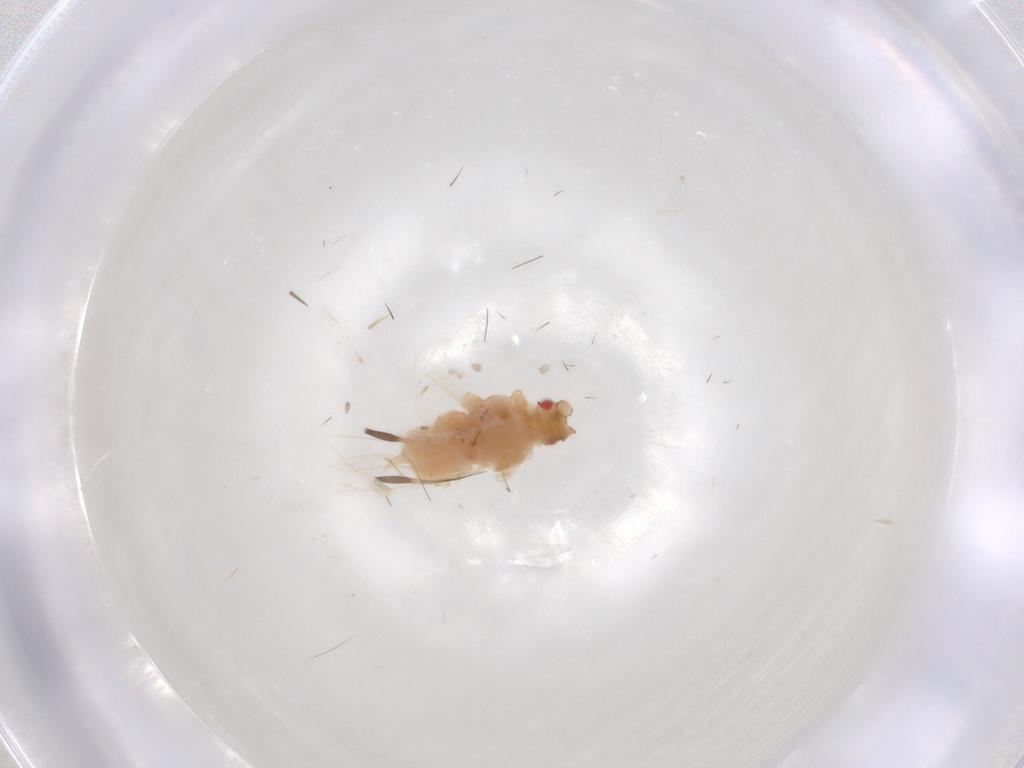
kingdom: Animalia
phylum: Arthropoda
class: Insecta
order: Hemiptera
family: Aphididae
